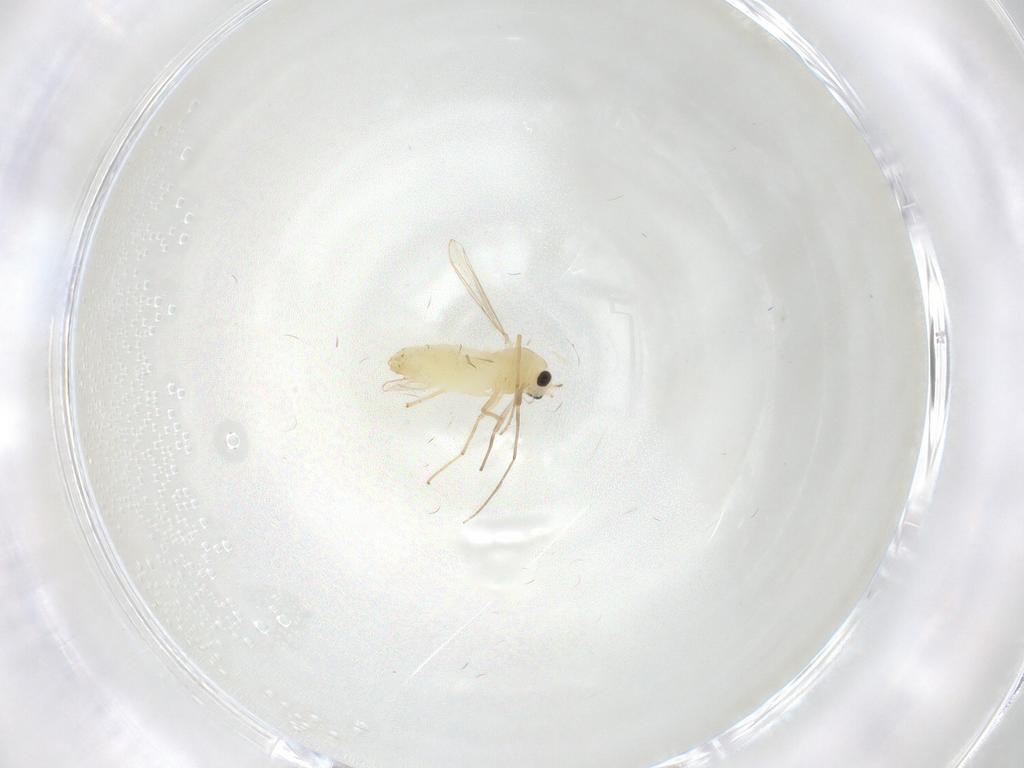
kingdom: Animalia
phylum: Arthropoda
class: Insecta
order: Diptera
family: Chironomidae
